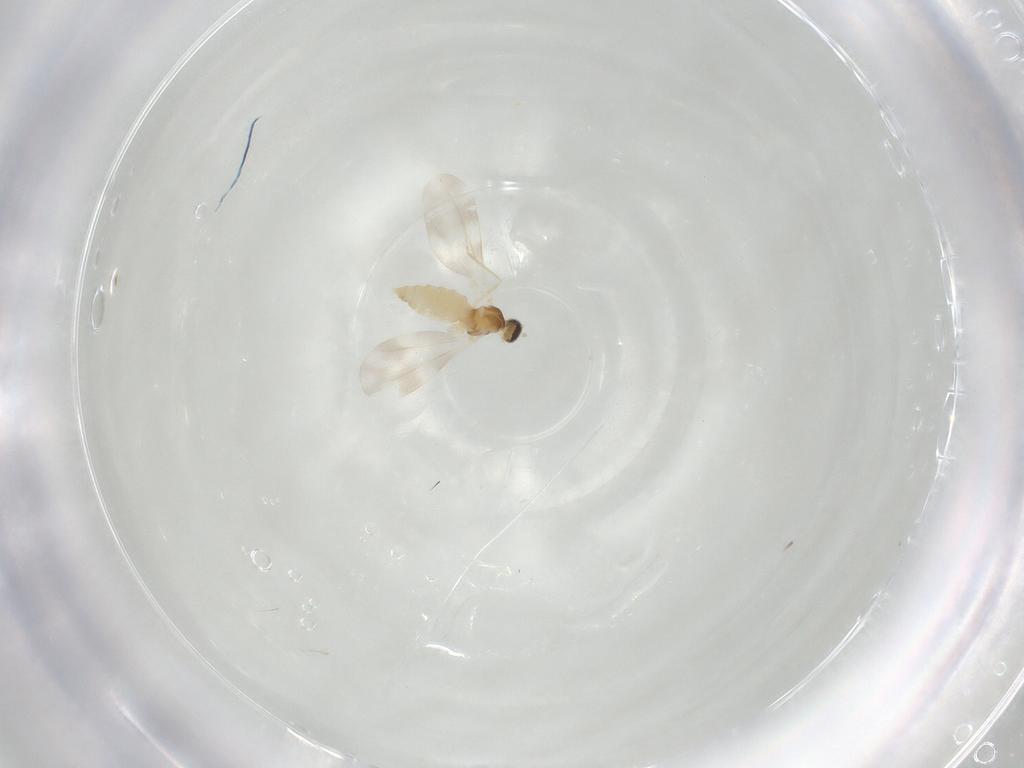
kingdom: Animalia
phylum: Arthropoda
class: Insecta
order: Diptera
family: Cecidomyiidae
